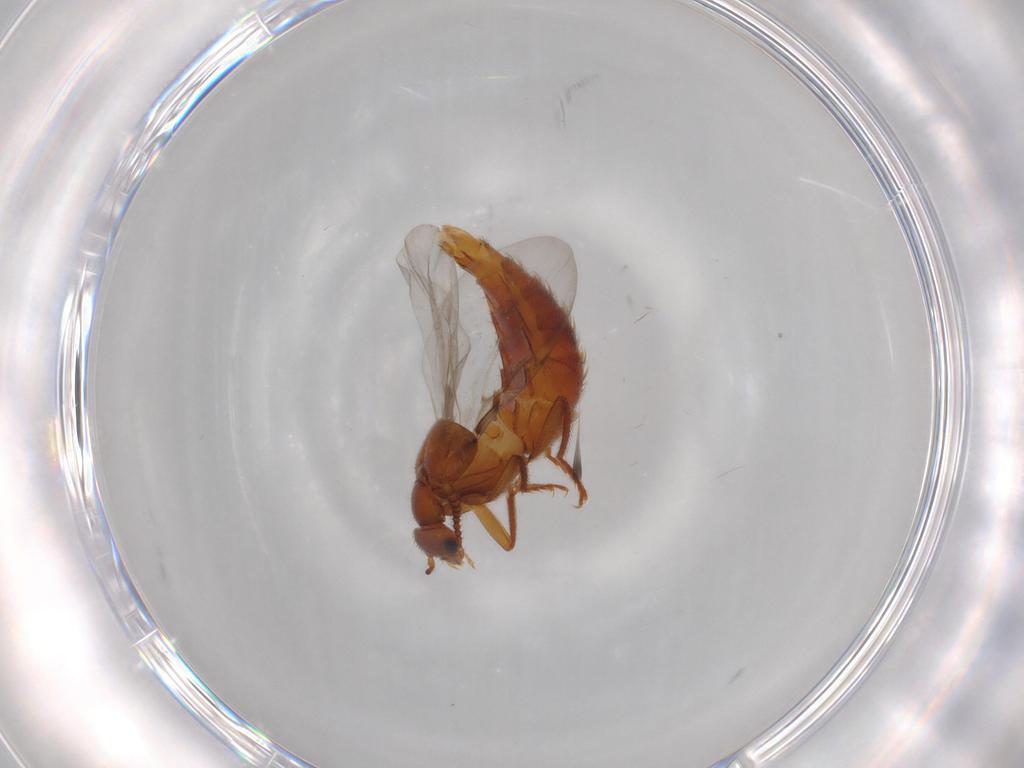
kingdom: Animalia
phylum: Arthropoda
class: Insecta
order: Coleoptera
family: Staphylinidae
